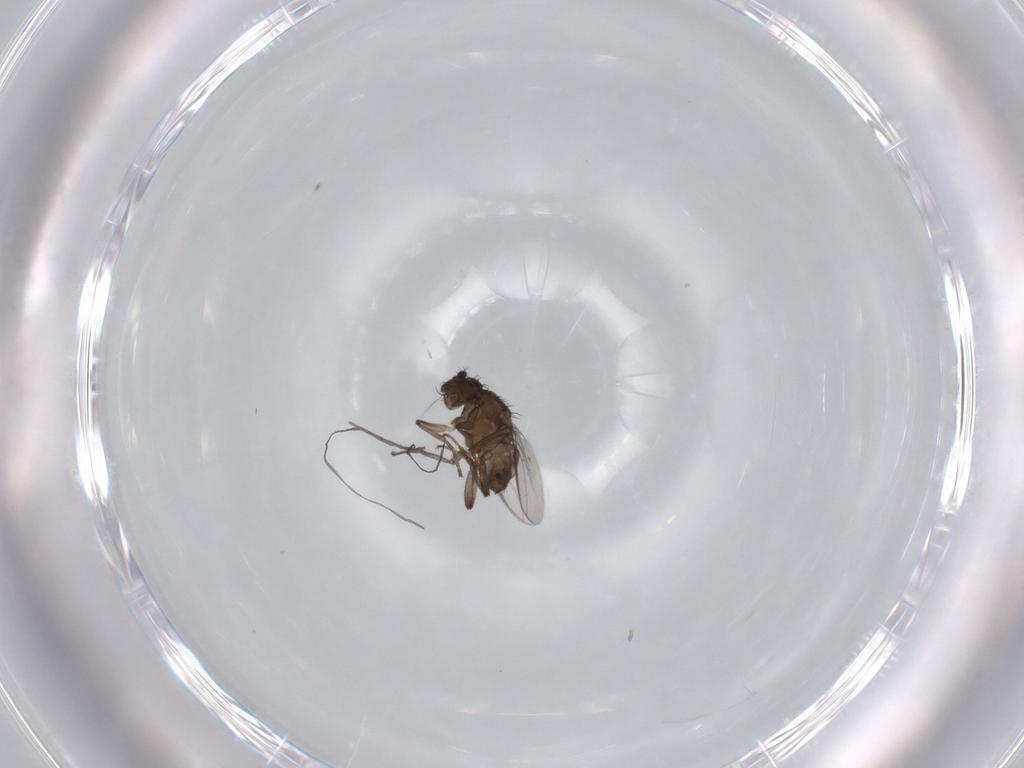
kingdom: Animalia
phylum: Arthropoda
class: Insecta
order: Diptera
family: Sphaeroceridae
